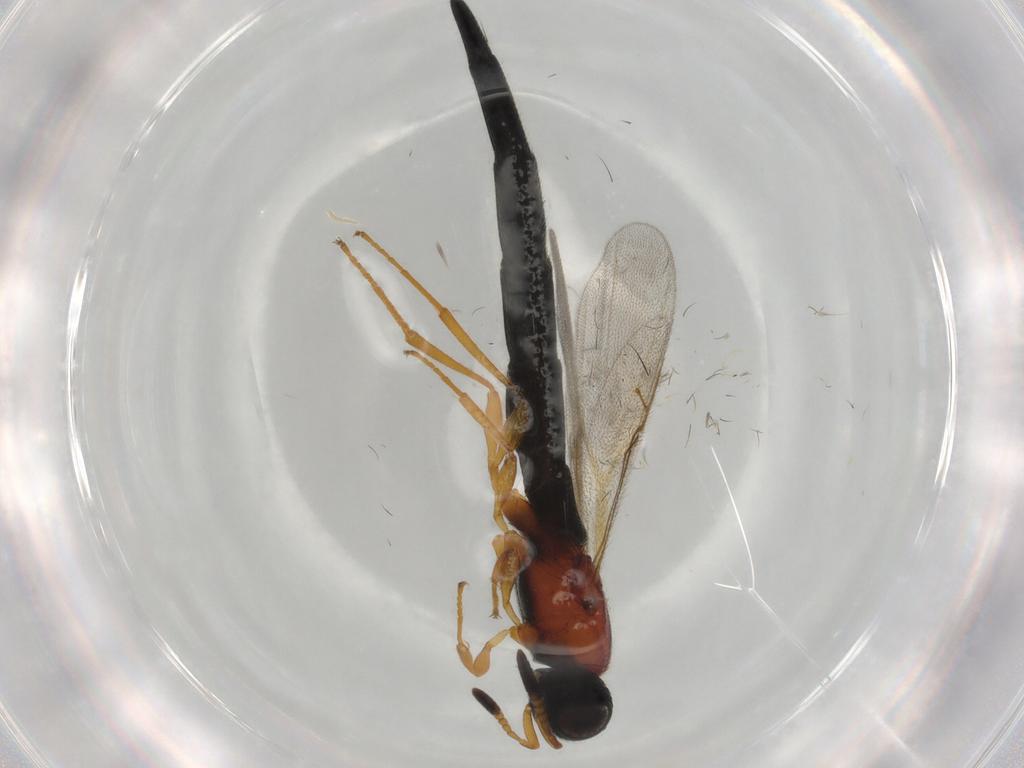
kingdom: Animalia
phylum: Arthropoda
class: Insecta
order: Hymenoptera
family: Scelionidae
